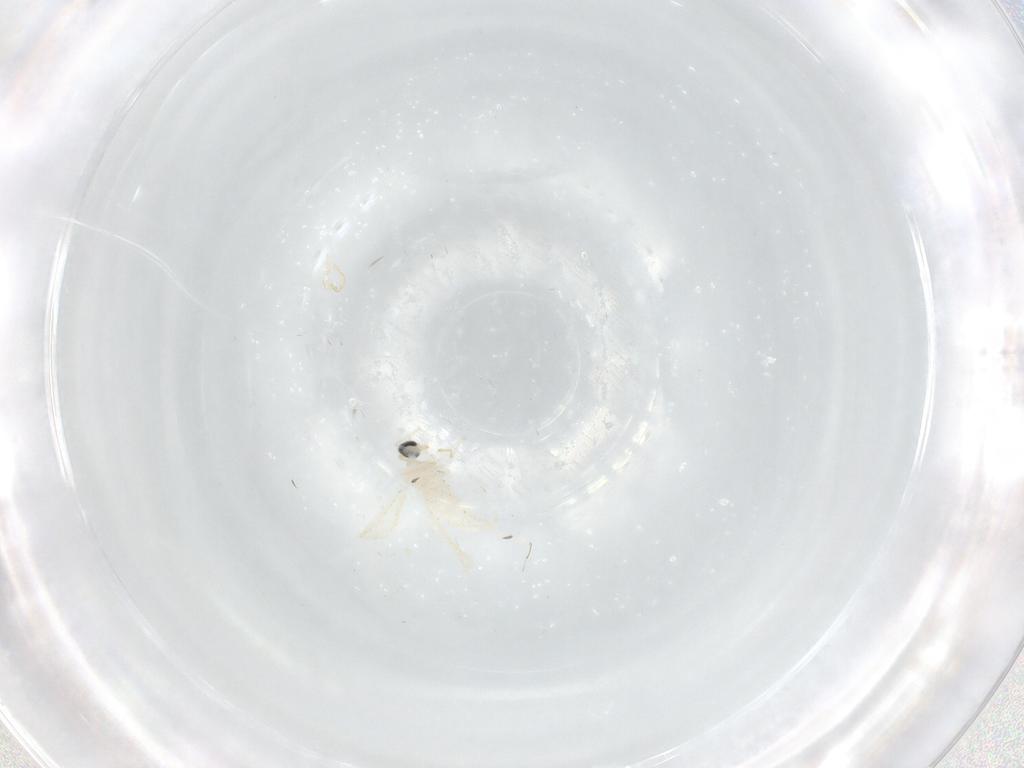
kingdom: Animalia
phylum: Arthropoda
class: Insecta
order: Diptera
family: Cecidomyiidae
